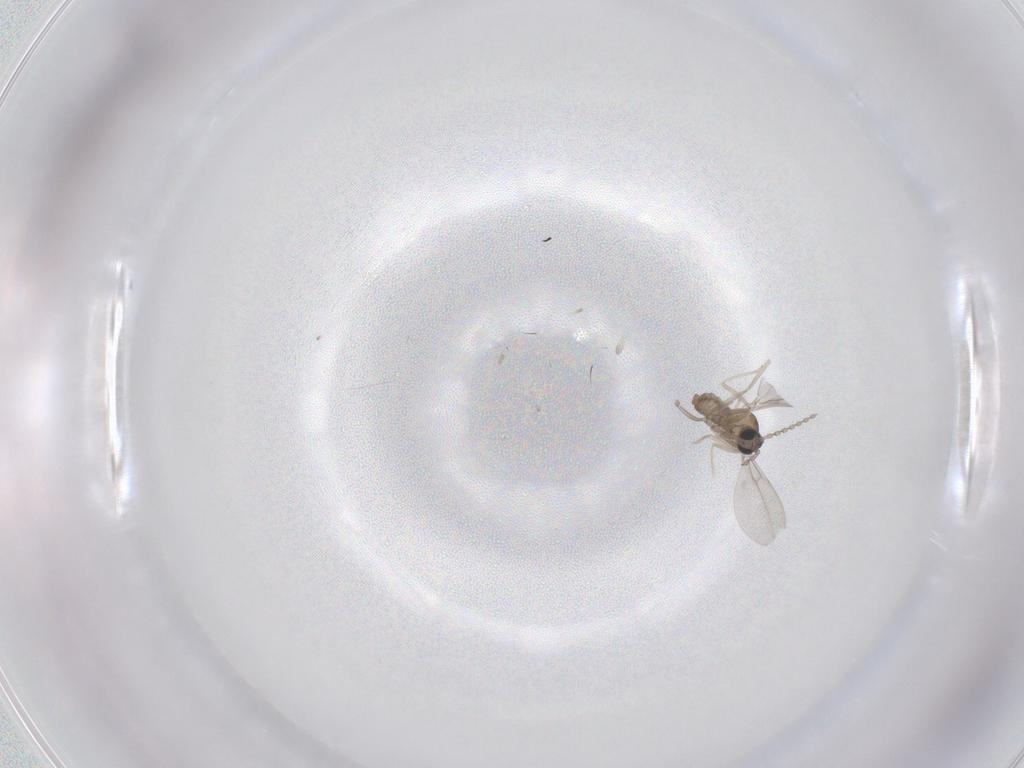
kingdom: Animalia
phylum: Arthropoda
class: Insecta
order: Diptera
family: Cecidomyiidae
